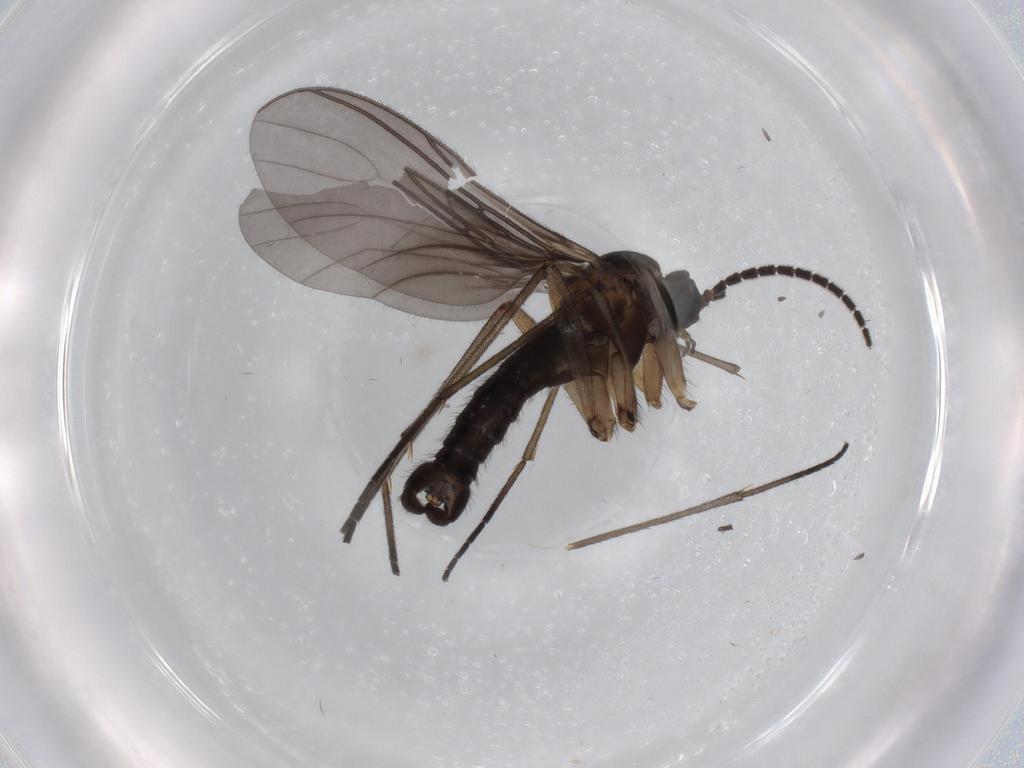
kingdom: Animalia
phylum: Arthropoda
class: Insecta
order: Diptera
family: Sciaridae
